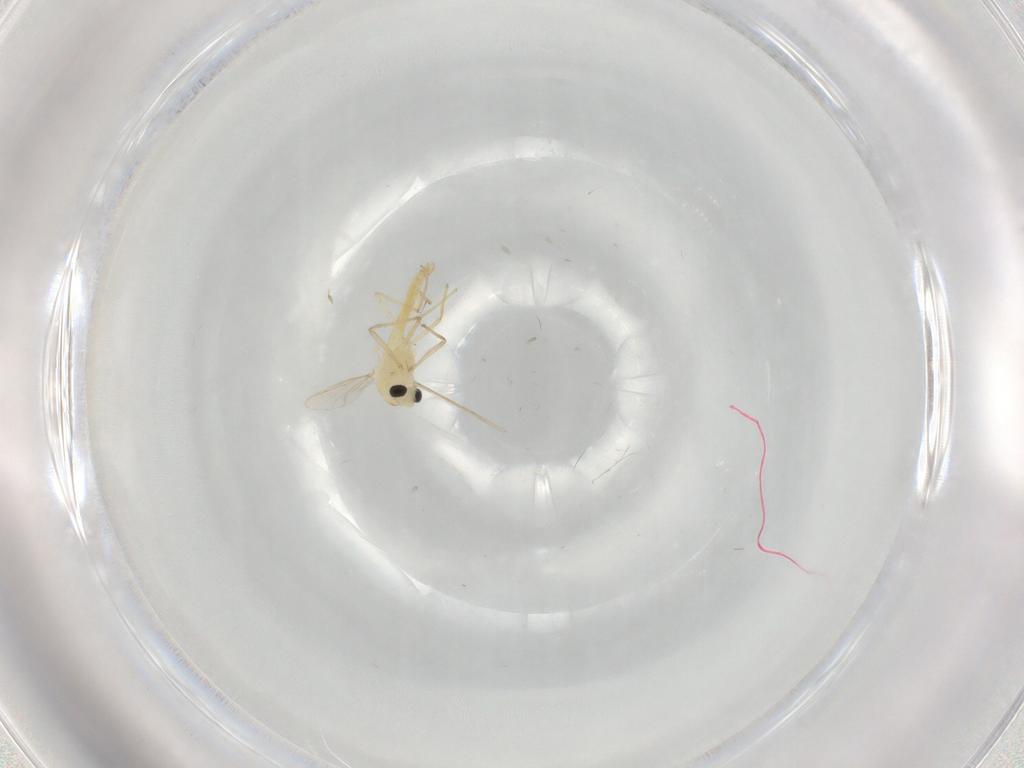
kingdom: Animalia
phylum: Arthropoda
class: Insecta
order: Diptera
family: Chironomidae
